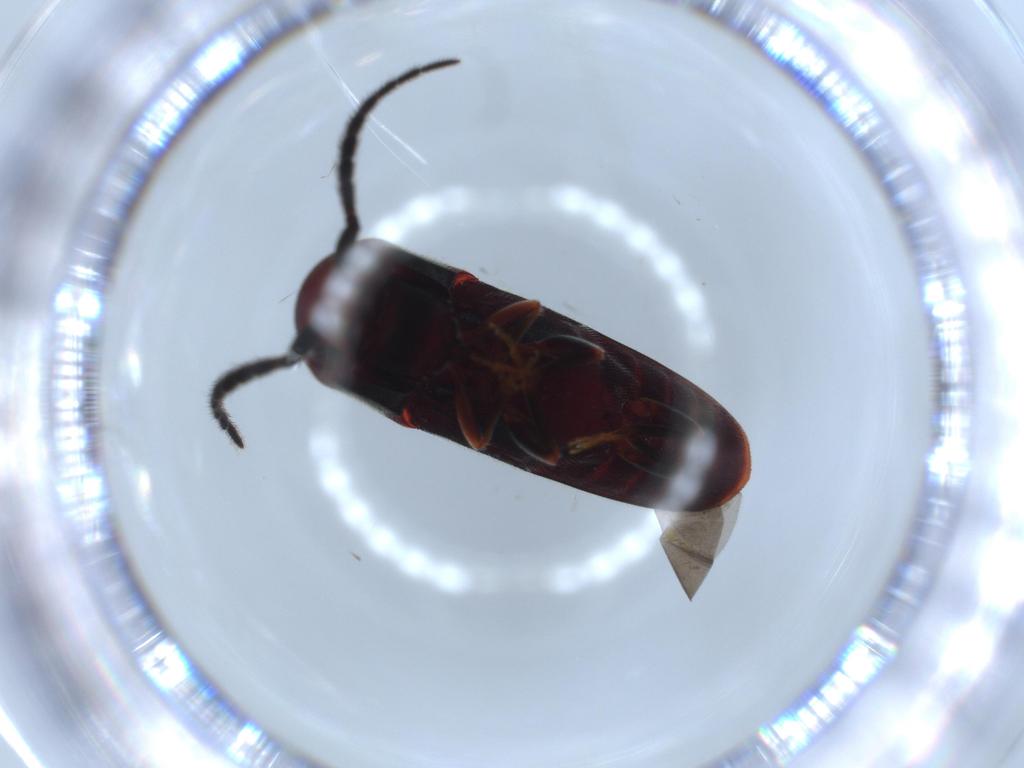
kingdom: Animalia
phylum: Arthropoda
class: Insecta
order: Coleoptera
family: Eucnemidae
